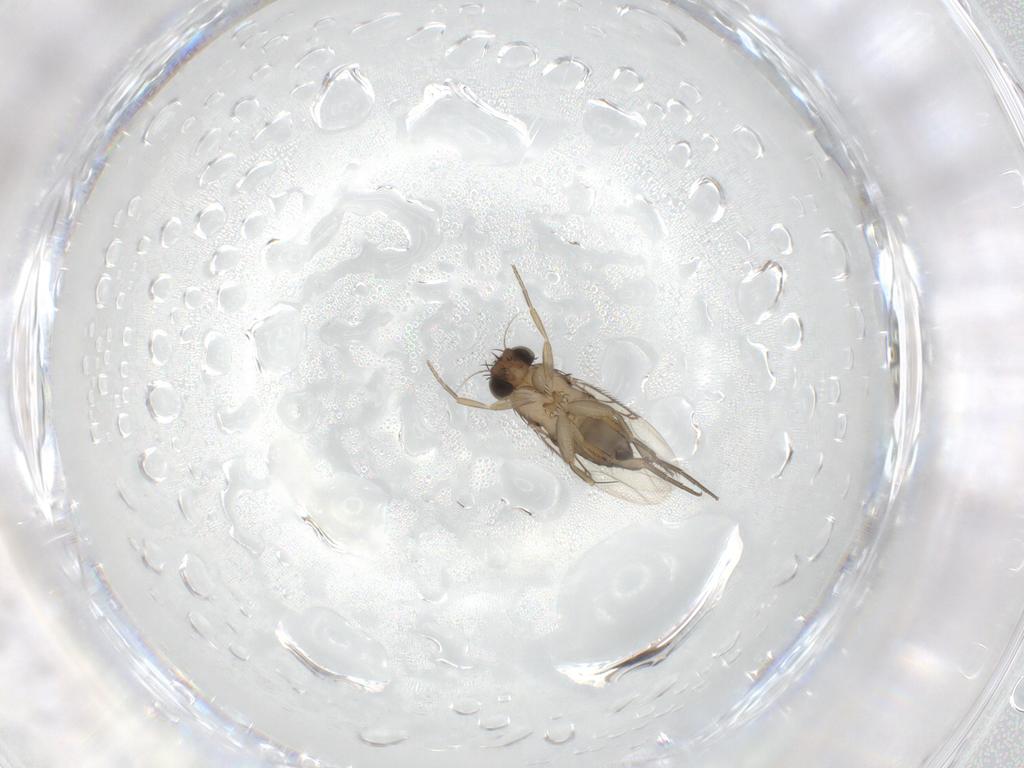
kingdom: Animalia
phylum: Arthropoda
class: Insecta
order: Diptera
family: Phoridae
